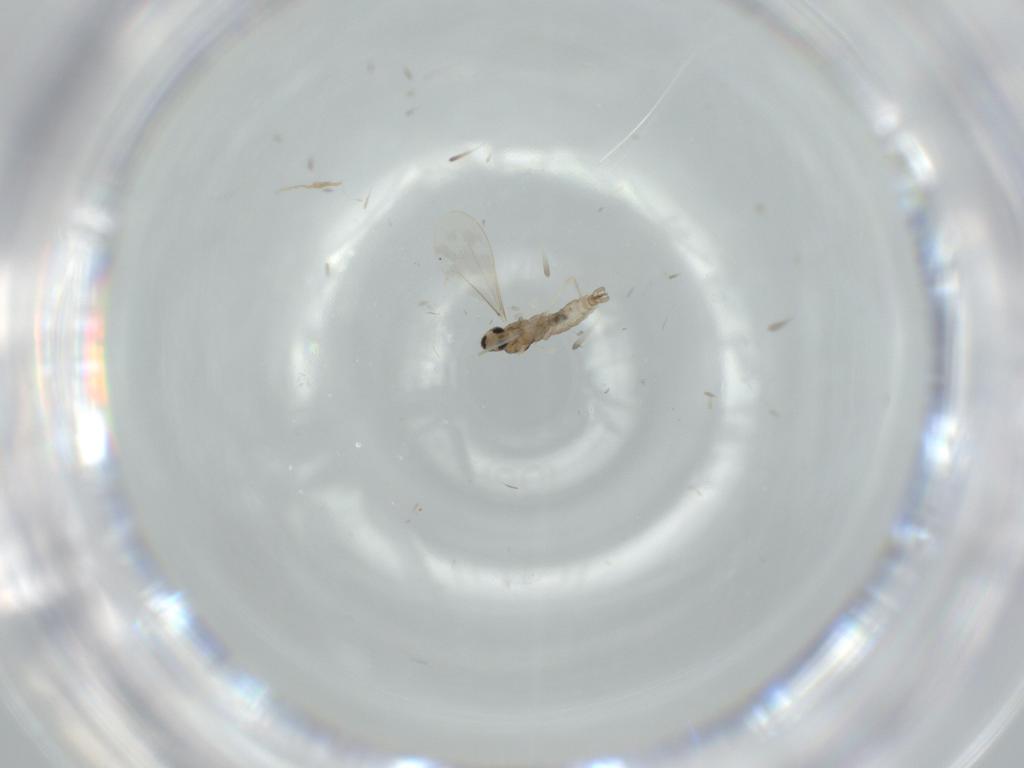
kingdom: Animalia
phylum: Arthropoda
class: Insecta
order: Diptera
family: Cecidomyiidae
